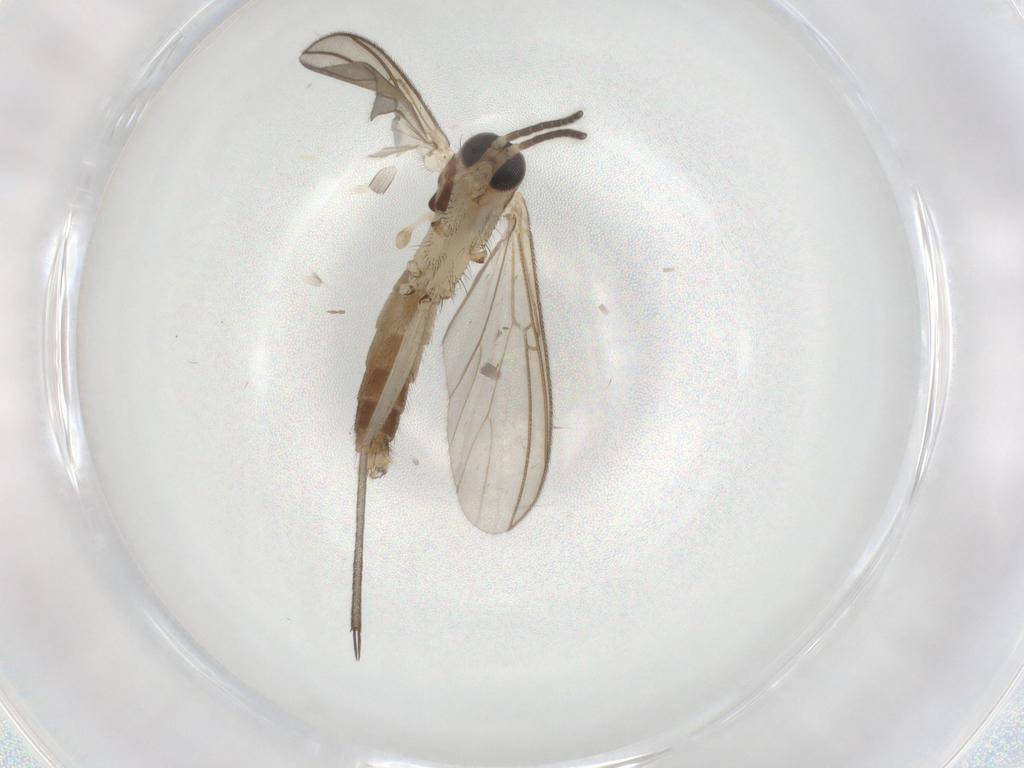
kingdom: Animalia
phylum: Arthropoda
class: Insecta
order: Diptera
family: Mycetophilidae
